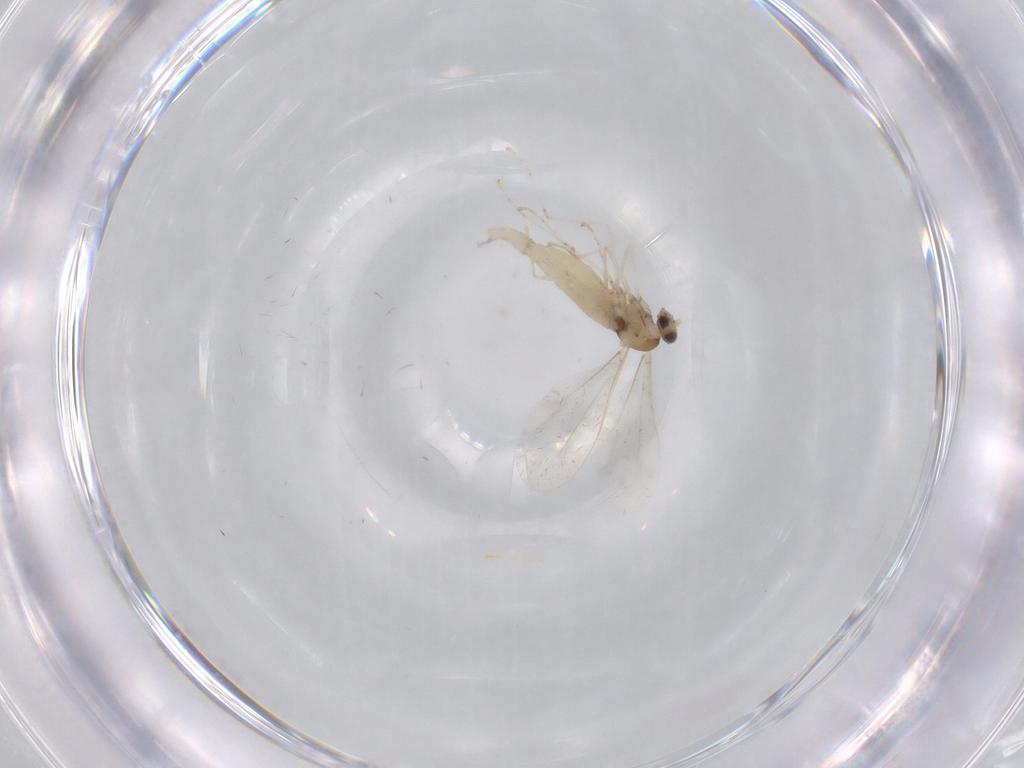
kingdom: Animalia
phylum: Arthropoda
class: Insecta
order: Diptera
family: Cecidomyiidae
